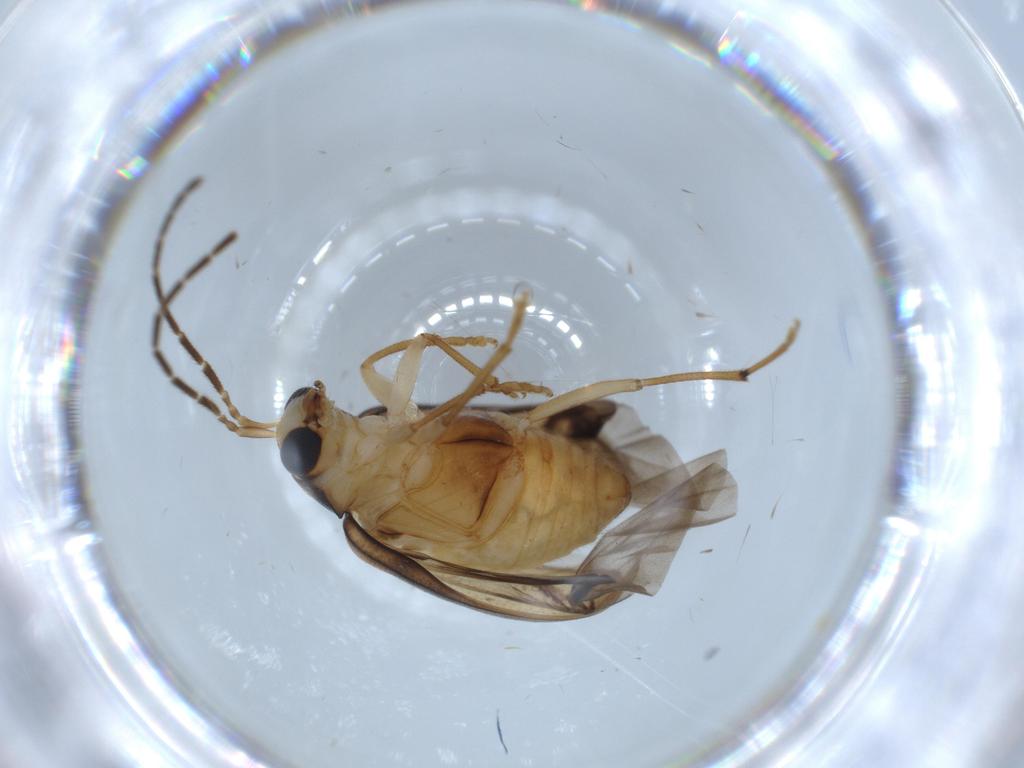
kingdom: Animalia
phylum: Arthropoda
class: Insecta
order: Coleoptera
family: Chrysomelidae
